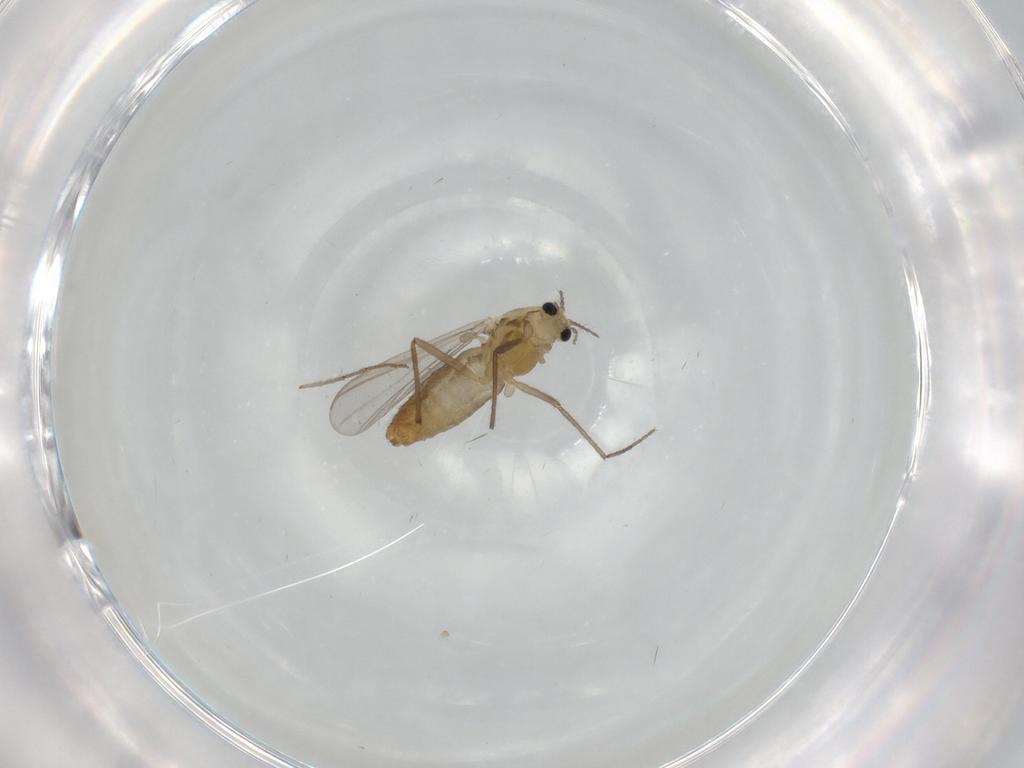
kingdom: Animalia
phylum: Arthropoda
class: Insecta
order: Diptera
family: Chironomidae
